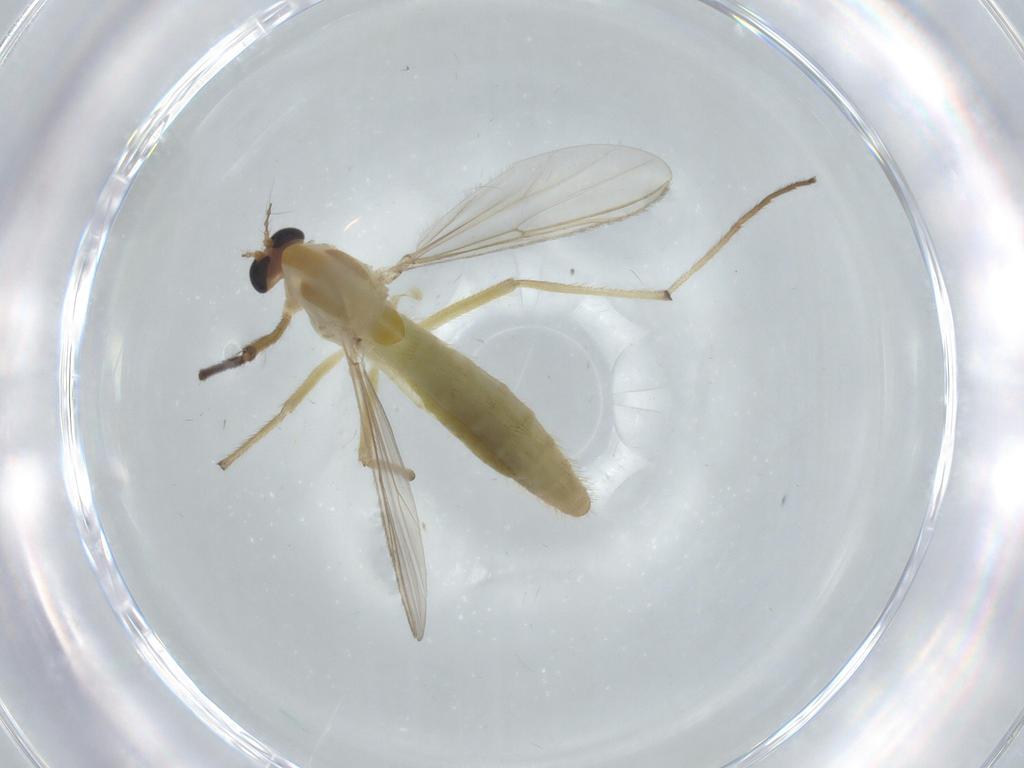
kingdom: Animalia
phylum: Arthropoda
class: Insecta
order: Diptera
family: Chironomidae
